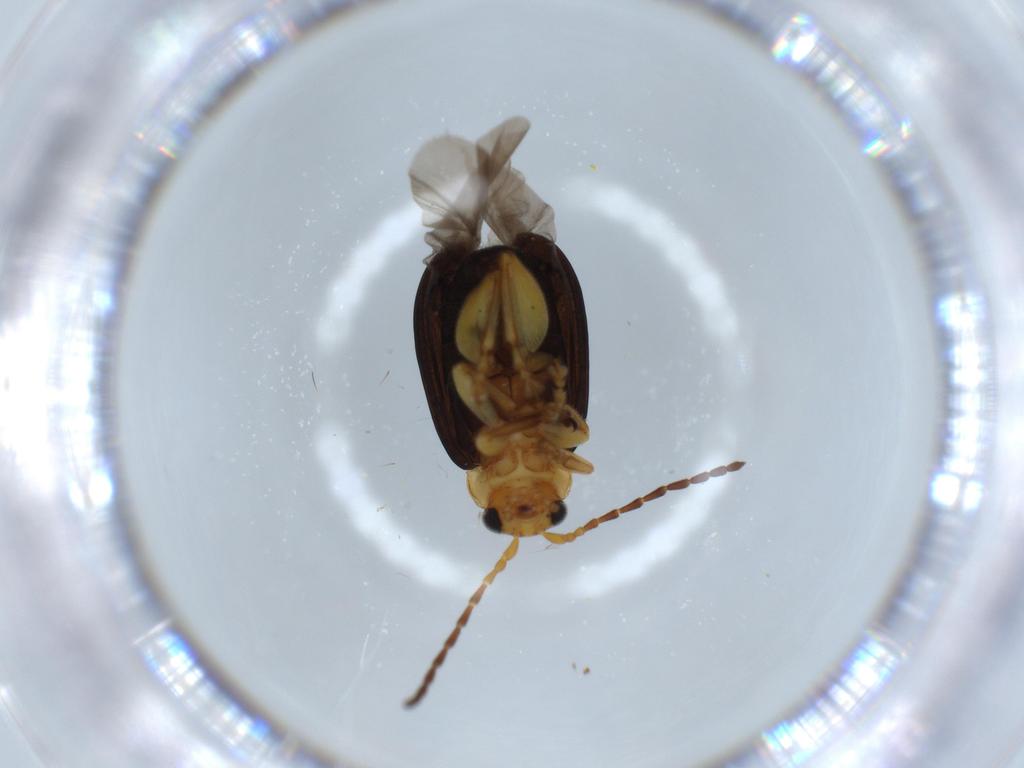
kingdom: Animalia
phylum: Arthropoda
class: Insecta
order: Coleoptera
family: Chrysomelidae
